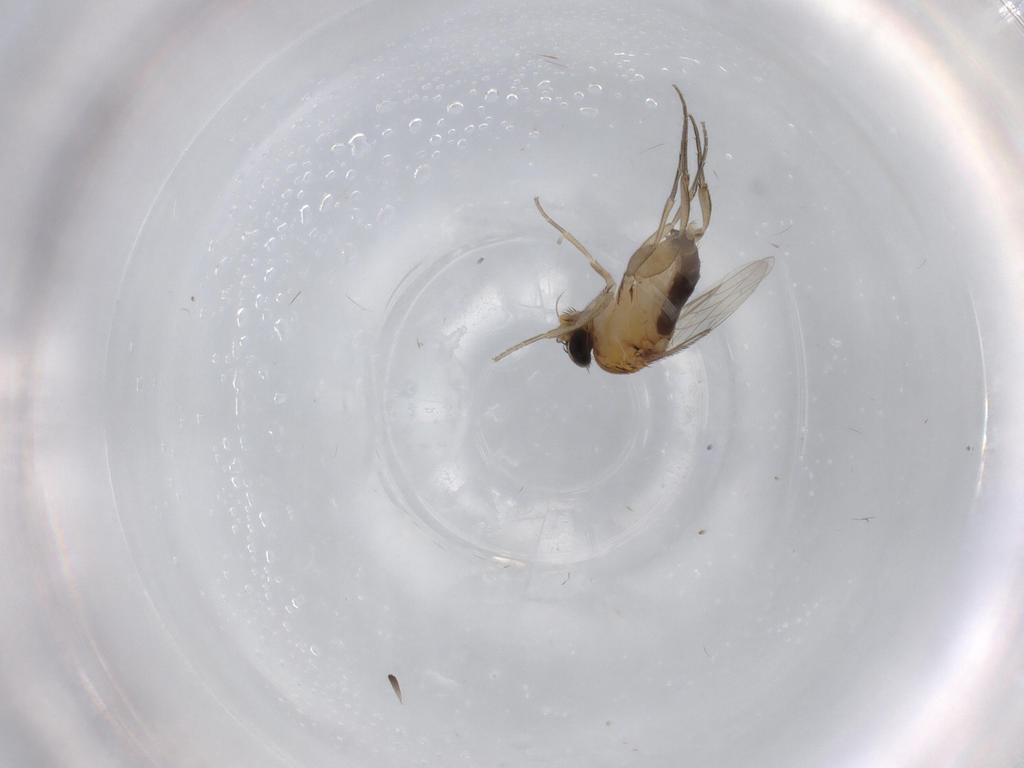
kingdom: Animalia
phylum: Arthropoda
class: Insecta
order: Diptera
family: Phoridae
